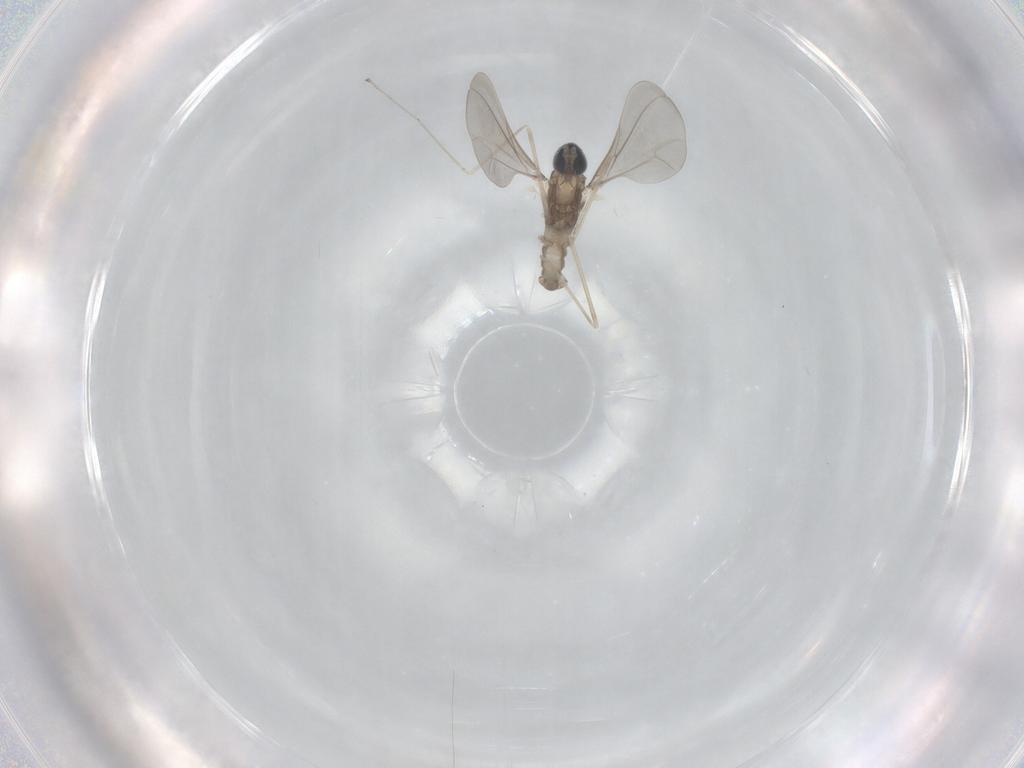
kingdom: Animalia
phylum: Arthropoda
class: Insecta
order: Diptera
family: Cecidomyiidae
